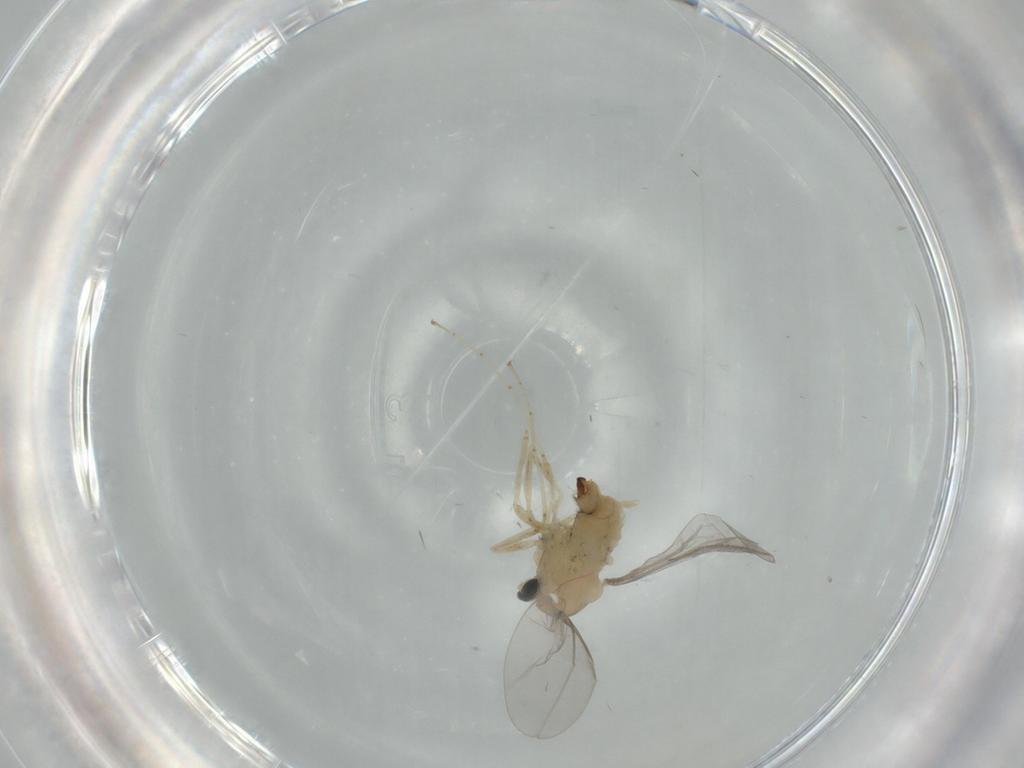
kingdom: Animalia
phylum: Arthropoda
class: Insecta
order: Diptera
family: Cecidomyiidae
